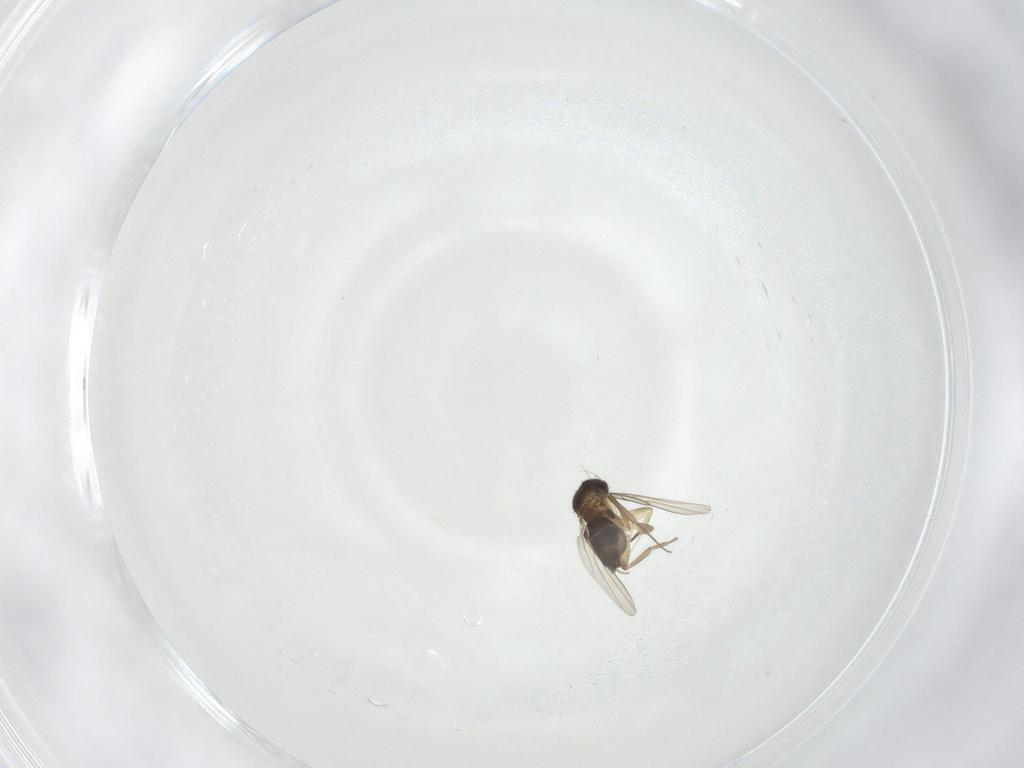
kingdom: Animalia
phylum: Arthropoda
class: Insecta
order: Diptera
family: Cecidomyiidae
